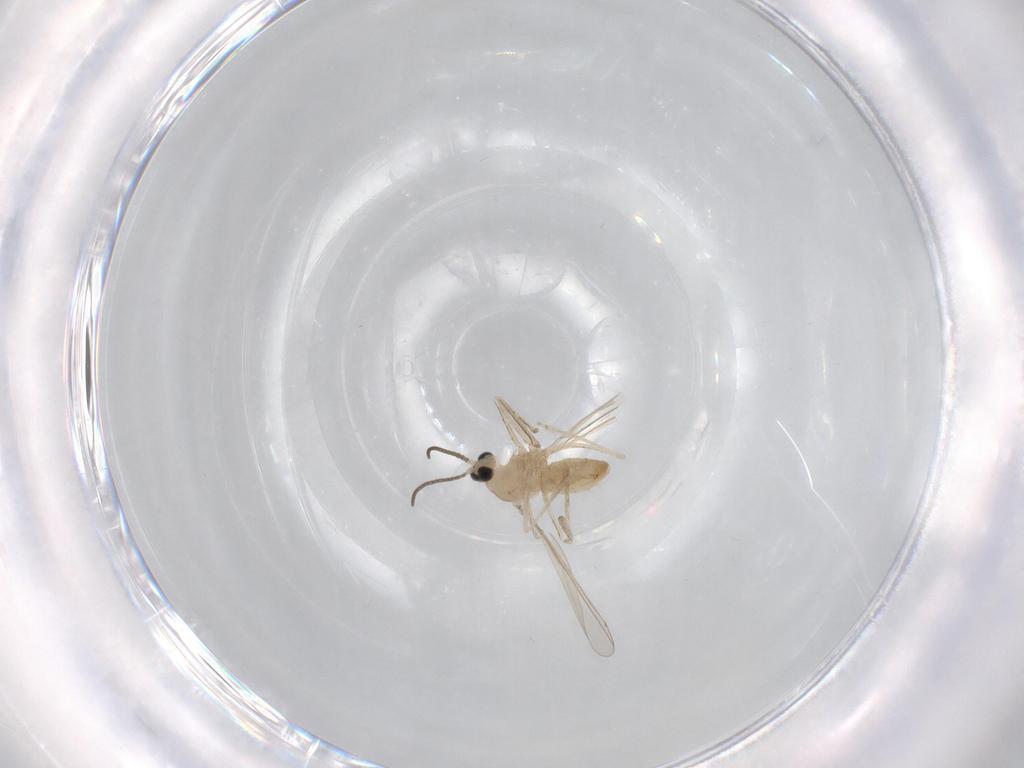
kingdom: Animalia
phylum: Arthropoda
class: Insecta
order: Diptera
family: Cecidomyiidae
